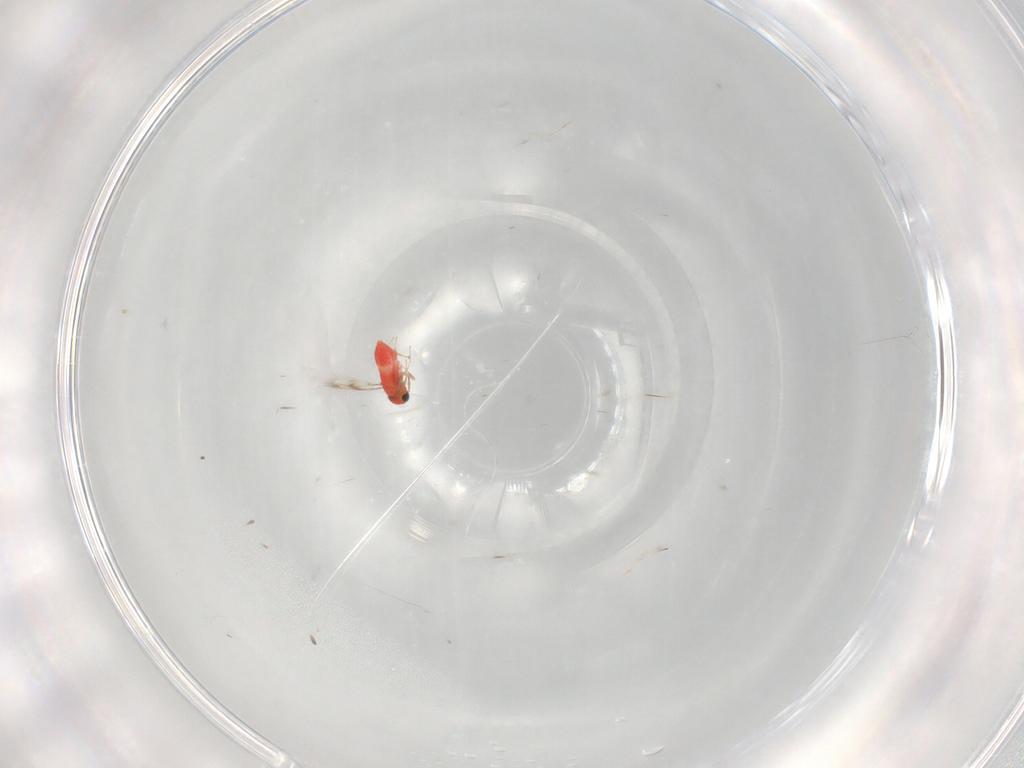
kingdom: Animalia
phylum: Arthropoda
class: Insecta
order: Hymenoptera
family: Trichogrammatidae
